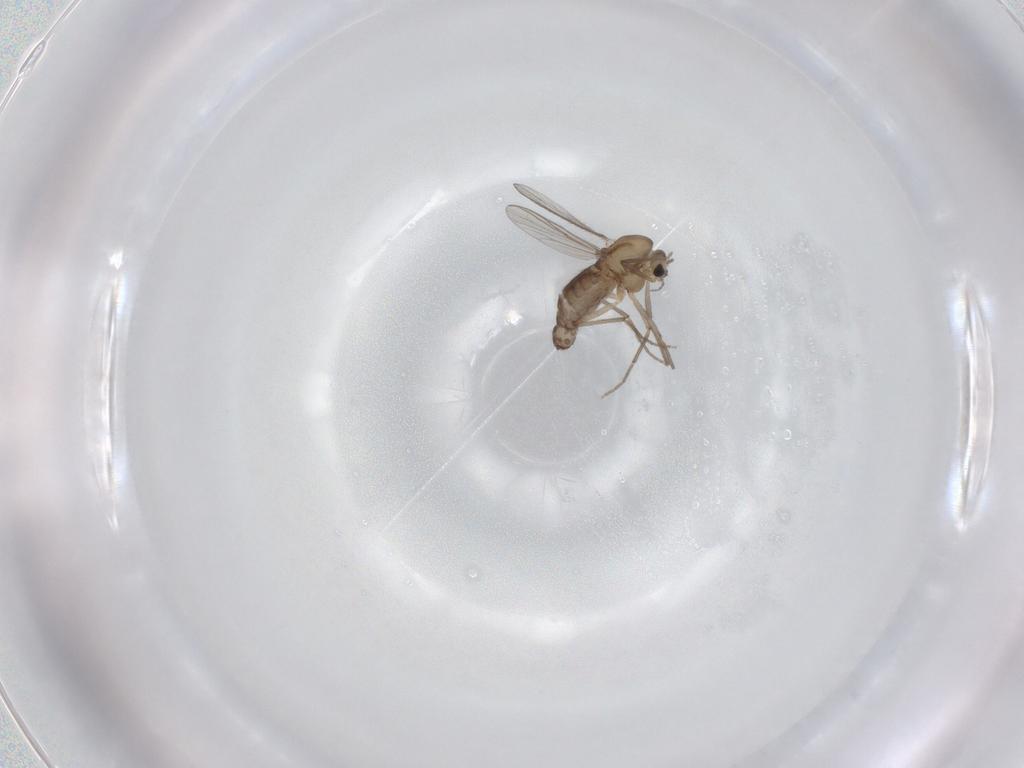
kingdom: Animalia
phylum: Arthropoda
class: Insecta
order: Diptera
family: Chironomidae
